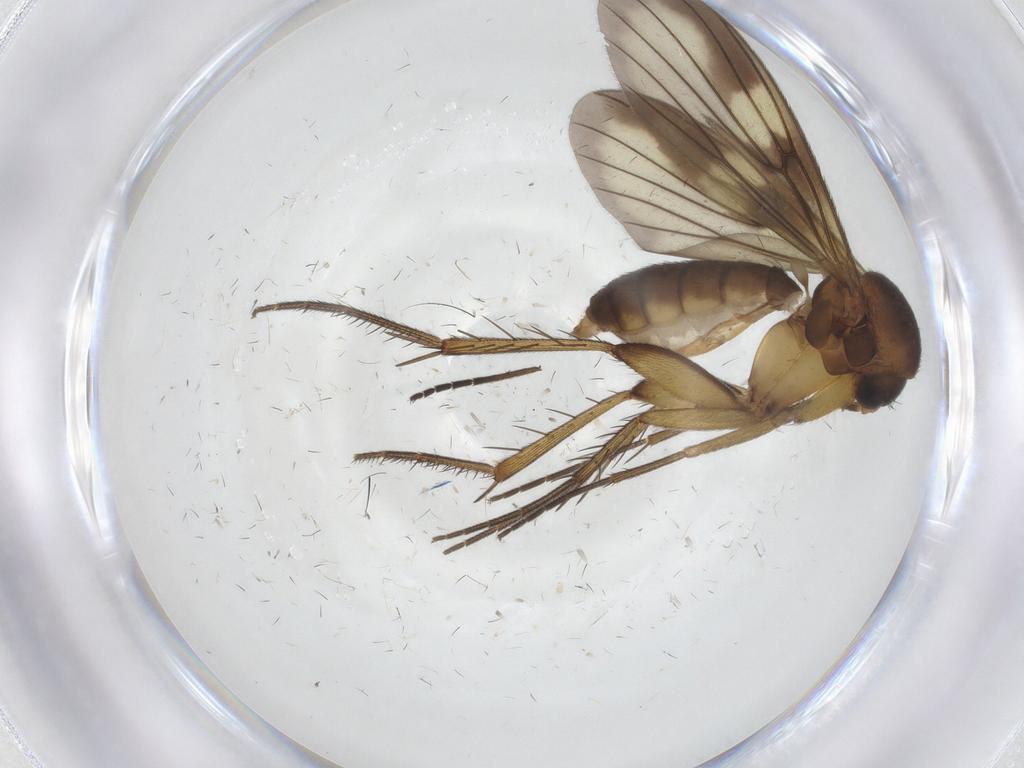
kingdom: Animalia
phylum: Arthropoda
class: Insecta
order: Diptera
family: Mycetophilidae
